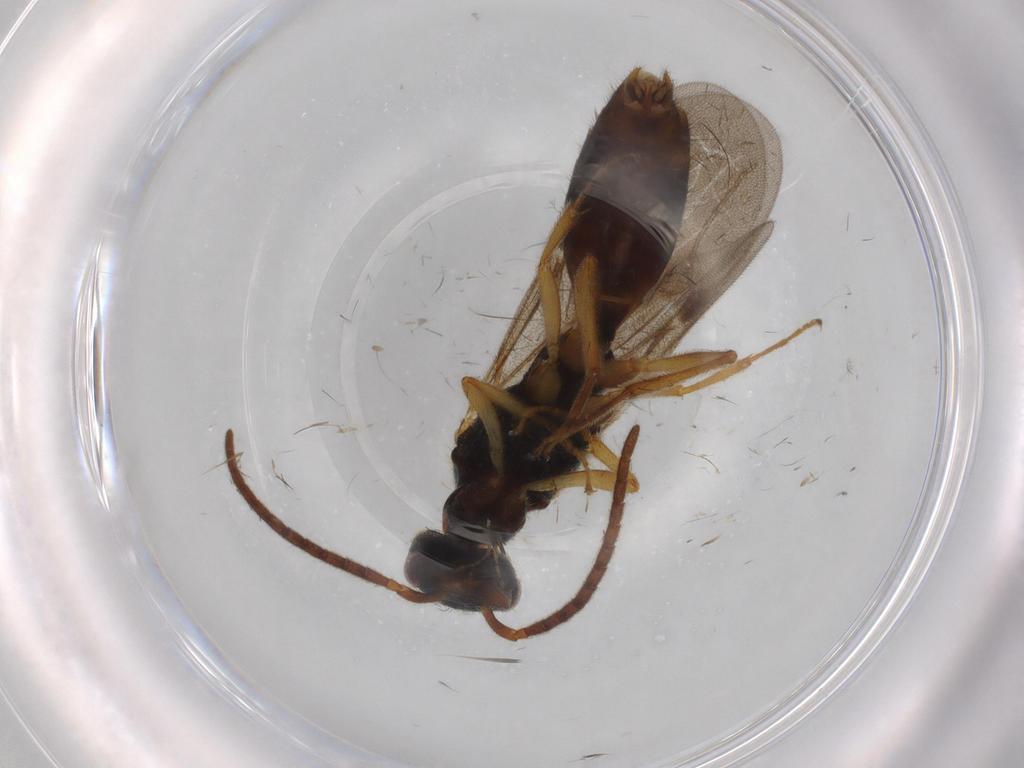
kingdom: Animalia
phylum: Arthropoda
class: Insecta
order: Hymenoptera
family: Bethylidae
